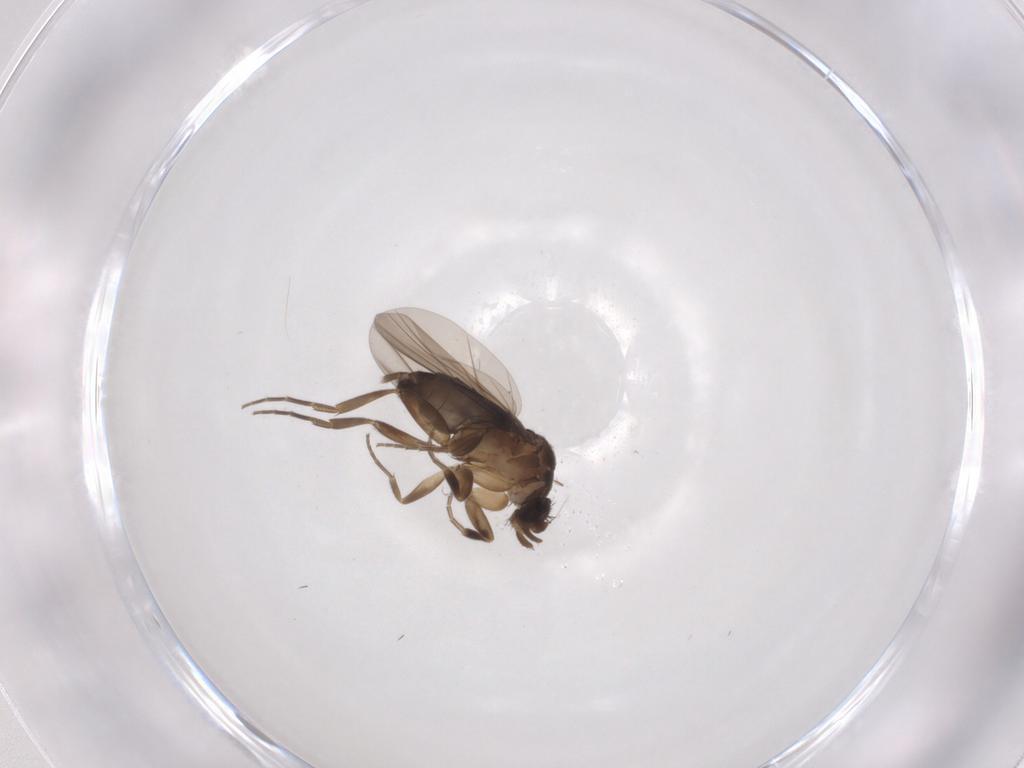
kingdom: Animalia
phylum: Arthropoda
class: Insecta
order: Diptera
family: Phoridae
